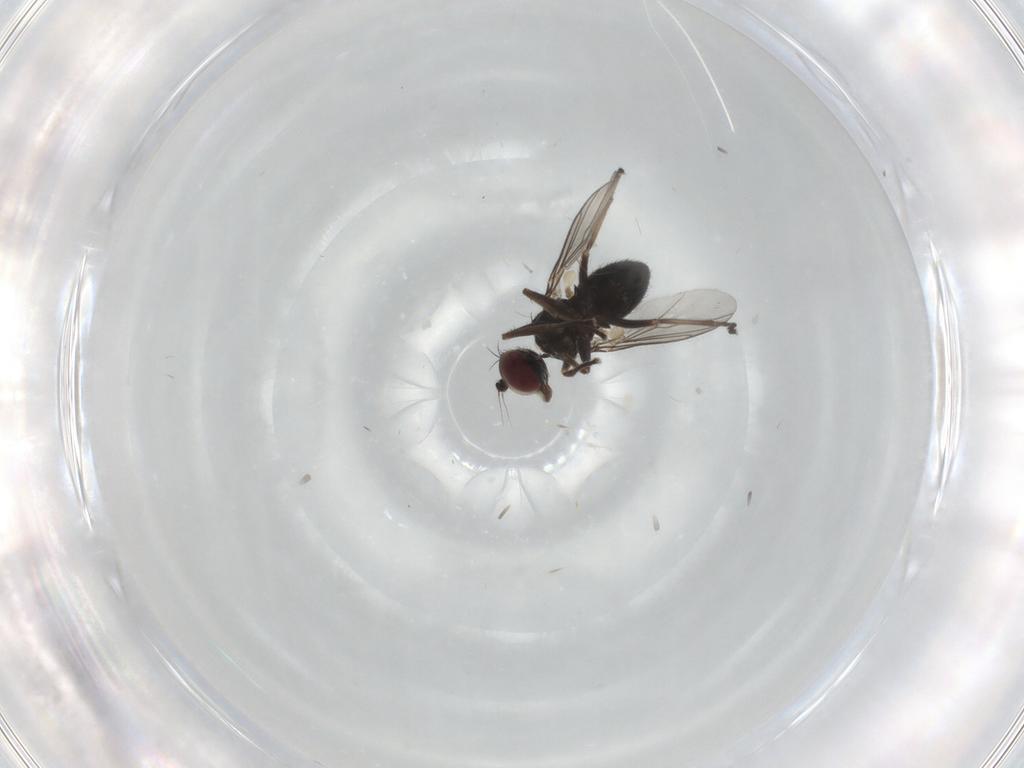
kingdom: Animalia
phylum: Arthropoda
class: Insecta
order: Diptera
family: Dolichopodidae
